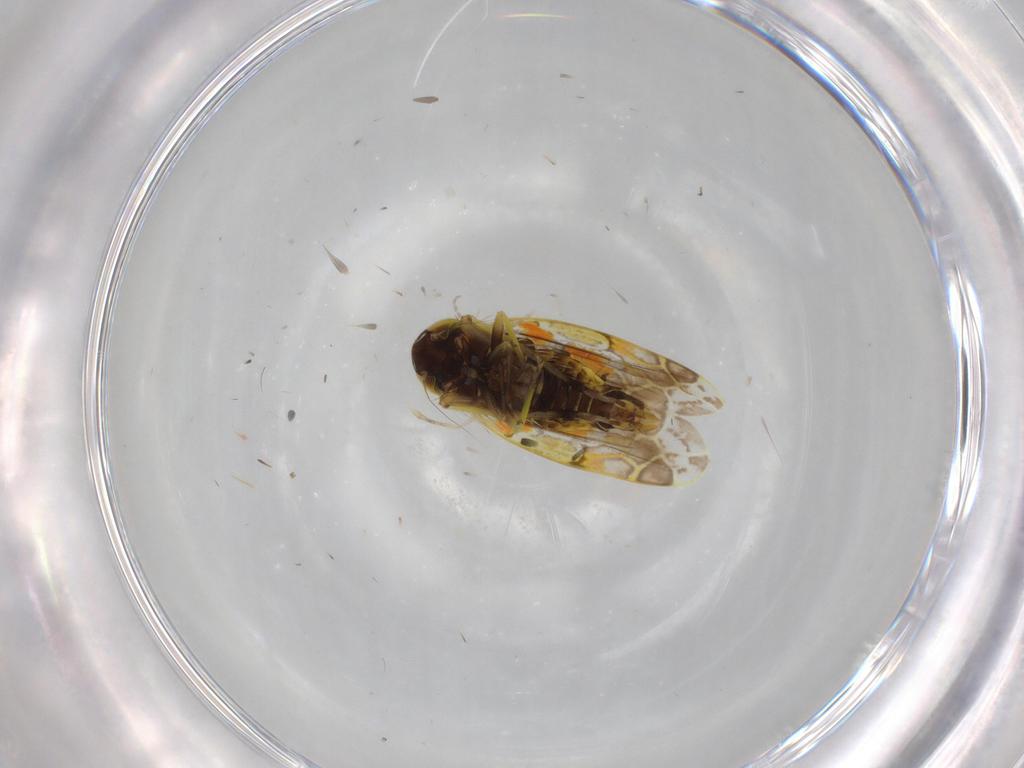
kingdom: Animalia
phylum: Arthropoda
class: Insecta
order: Hemiptera
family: Cicadellidae
